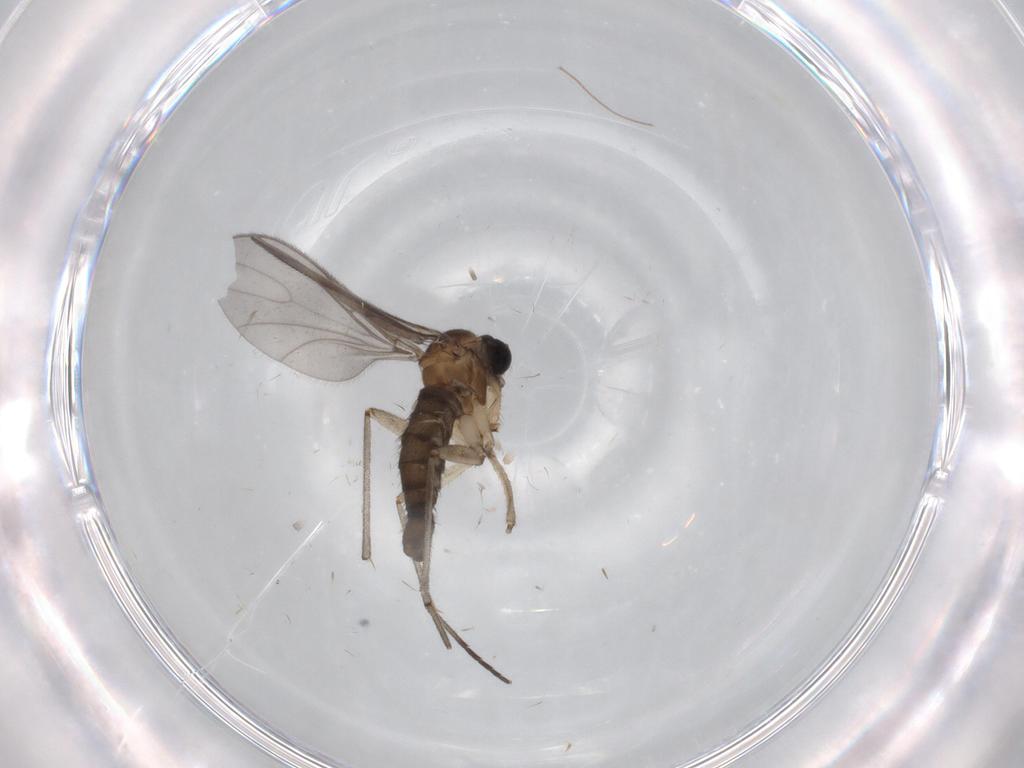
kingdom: Animalia
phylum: Arthropoda
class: Insecta
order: Diptera
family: Sciaridae
